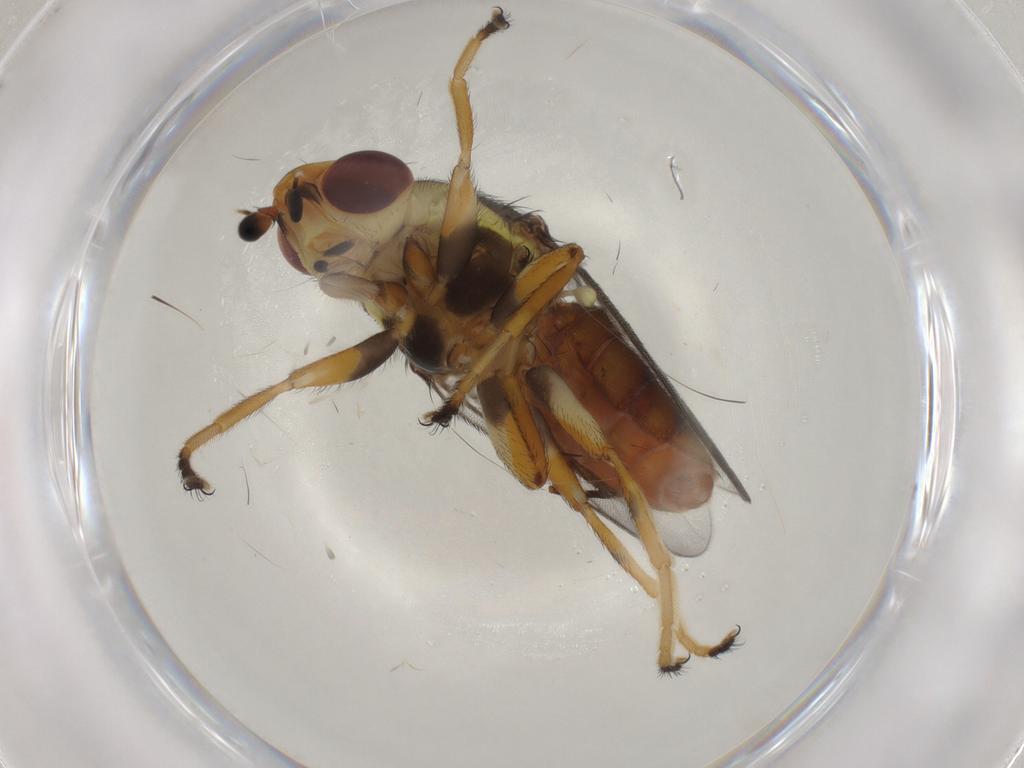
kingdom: Animalia
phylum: Arthropoda
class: Insecta
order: Diptera
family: Chloropidae
